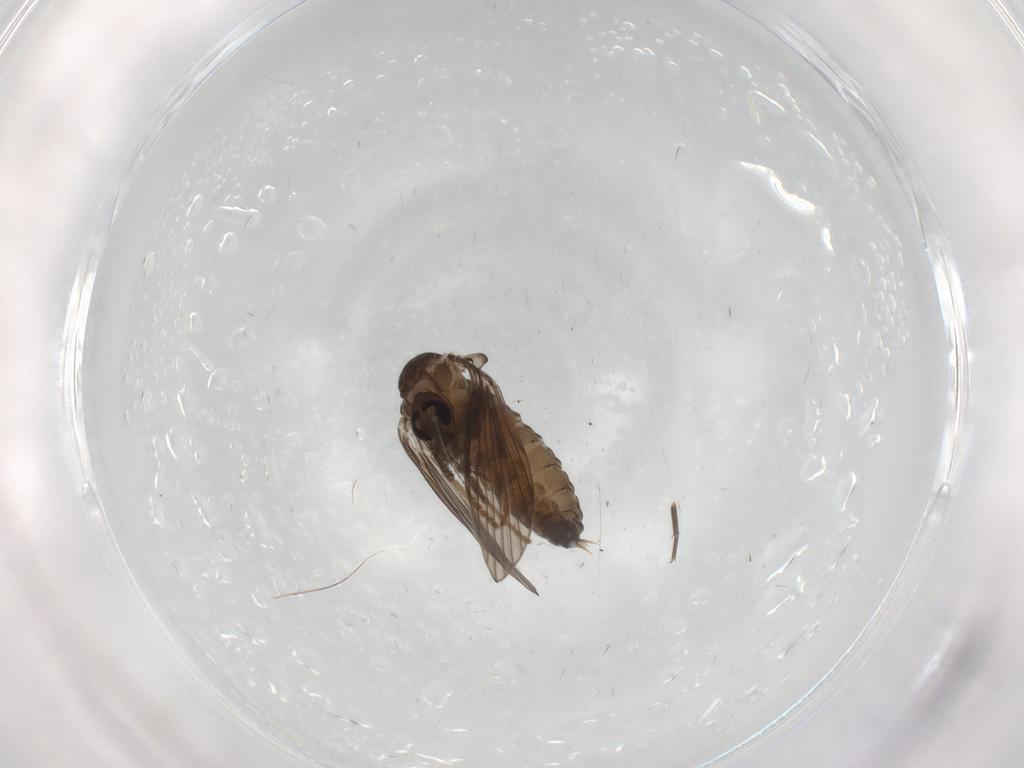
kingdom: Animalia
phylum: Arthropoda
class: Insecta
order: Diptera
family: Psychodidae
